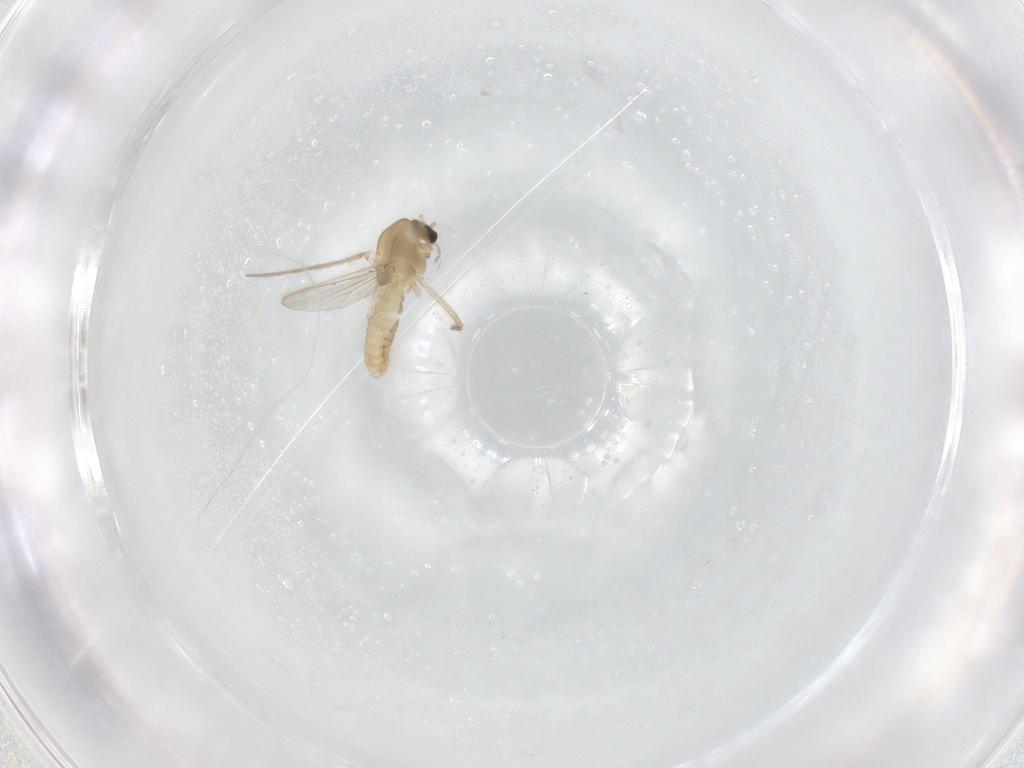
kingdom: Animalia
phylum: Arthropoda
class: Insecta
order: Diptera
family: Chironomidae
